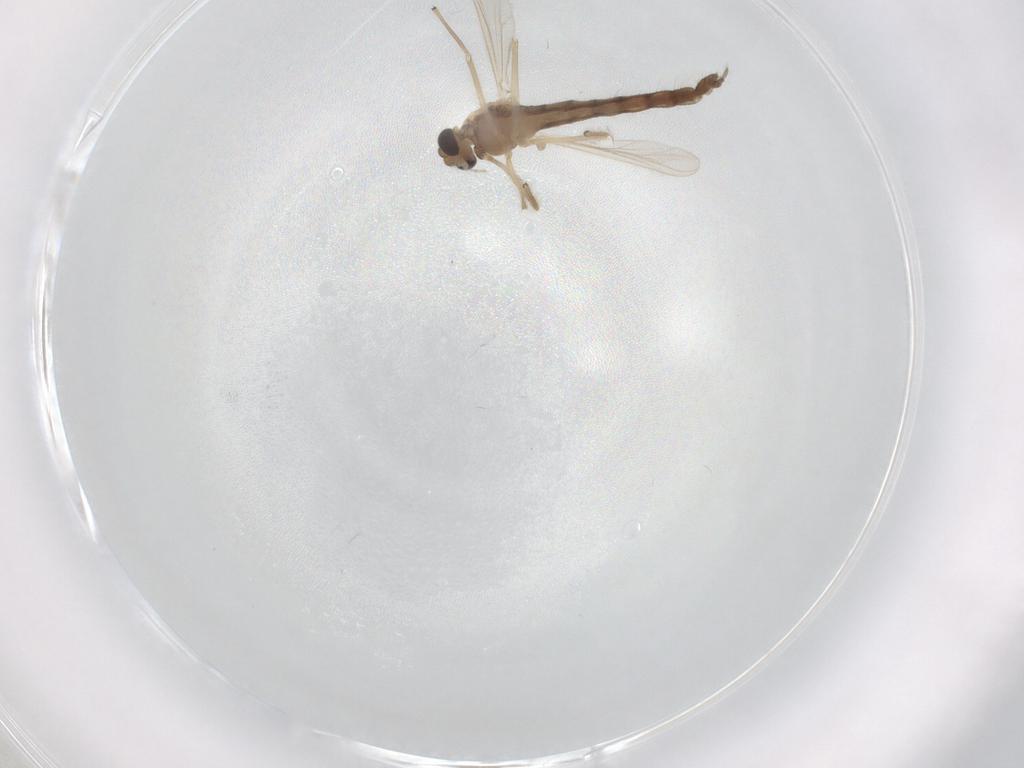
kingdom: Animalia
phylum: Arthropoda
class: Insecta
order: Diptera
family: Chironomidae
